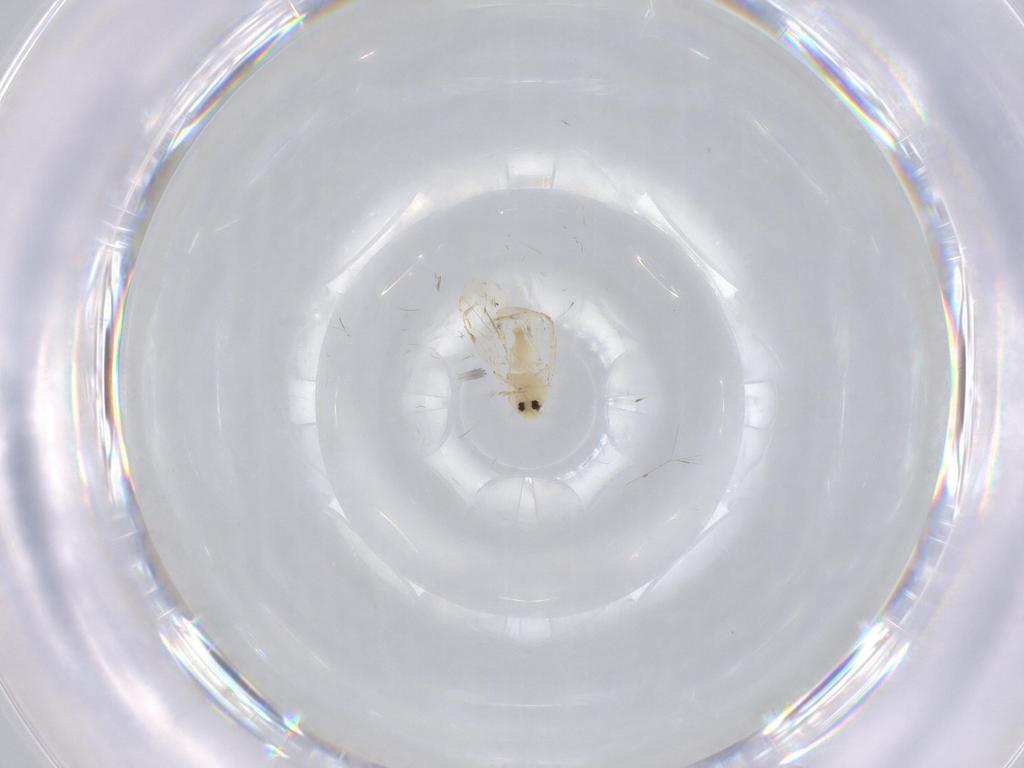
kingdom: Animalia
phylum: Arthropoda
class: Insecta
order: Hemiptera
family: Aleyrodidae
